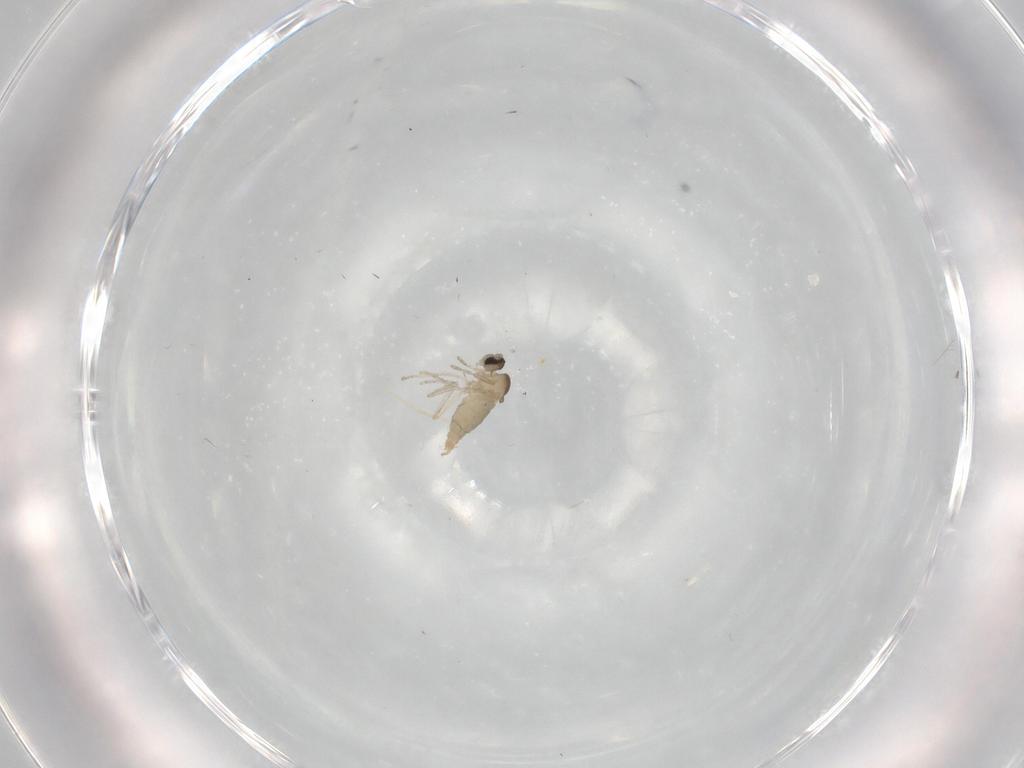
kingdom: Animalia
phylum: Arthropoda
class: Insecta
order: Diptera
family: Cecidomyiidae
